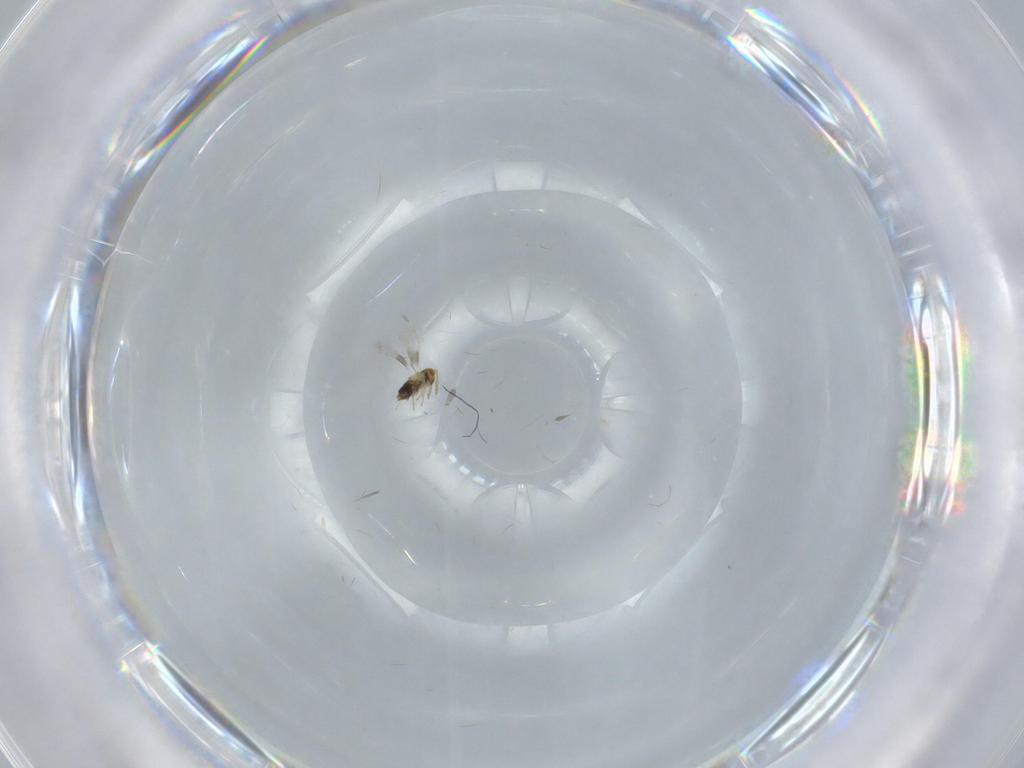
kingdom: Animalia
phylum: Arthropoda
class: Insecta
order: Hymenoptera
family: Aphelinidae
